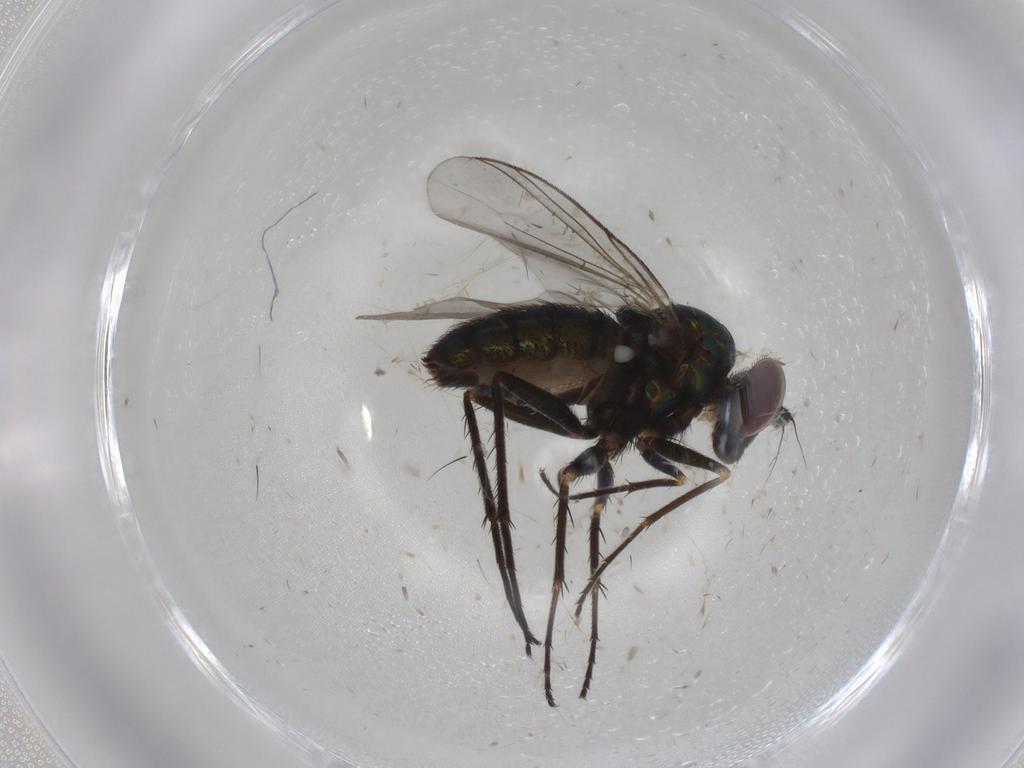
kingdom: Animalia
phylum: Arthropoda
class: Insecta
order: Diptera
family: Dolichopodidae
